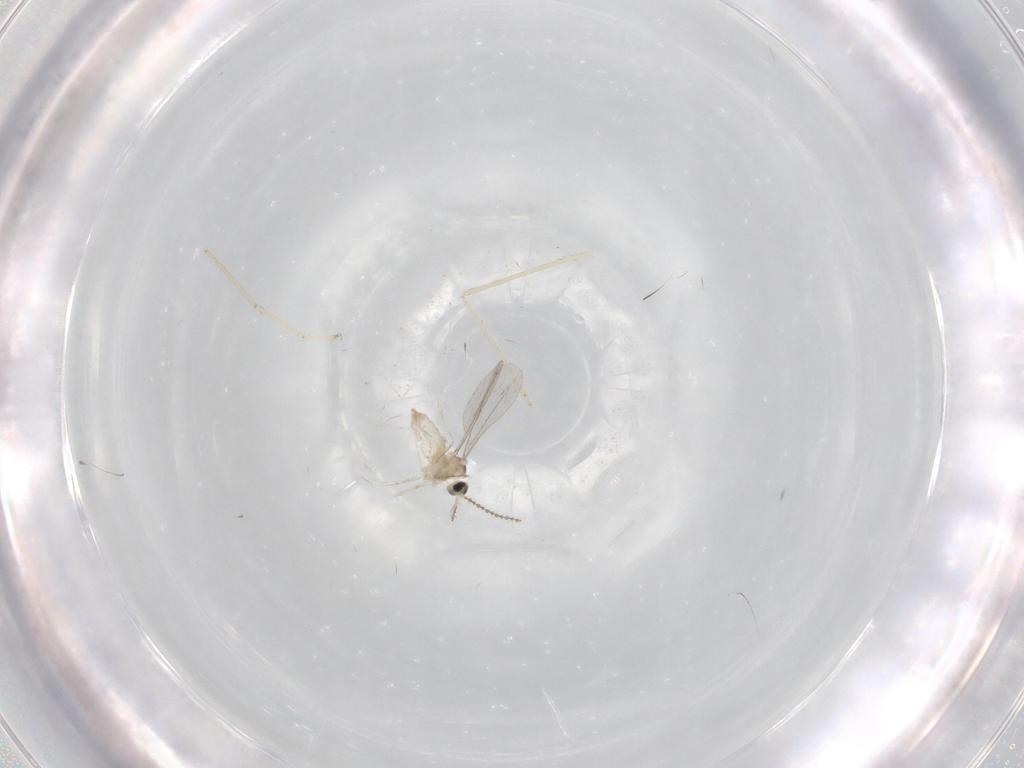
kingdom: Animalia
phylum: Arthropoda
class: Insecta
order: Diptera
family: Cecidomyiidae
